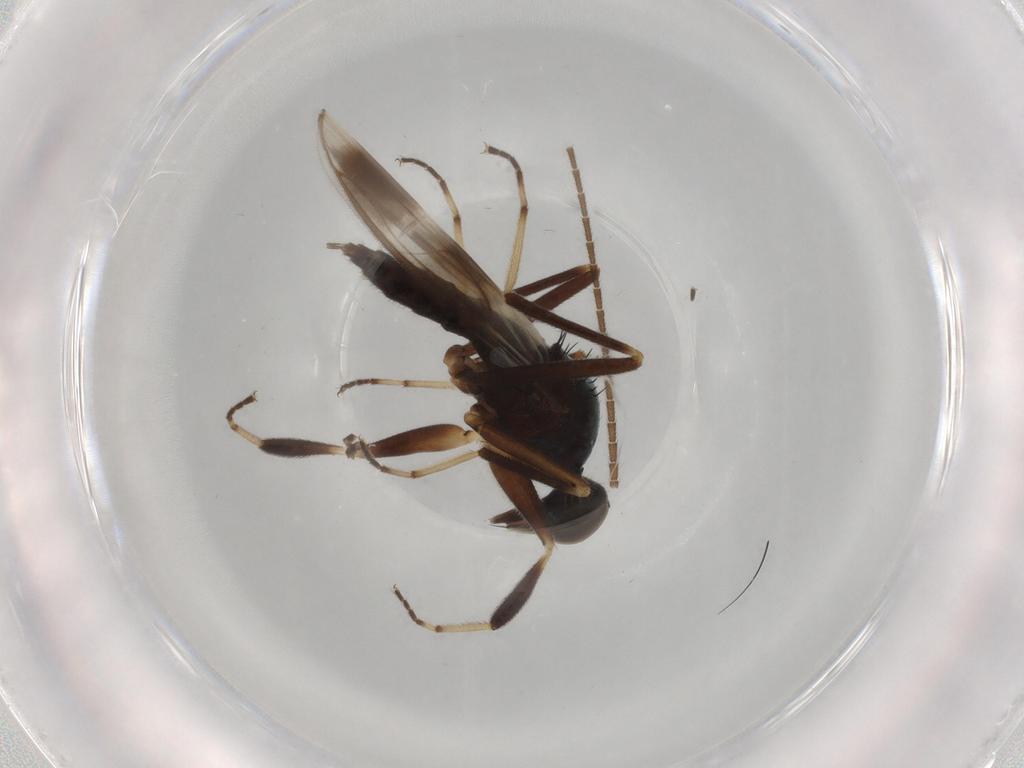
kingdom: Animalia
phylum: Arthropoda
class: Insecta
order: Diptera
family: Hybotidae
